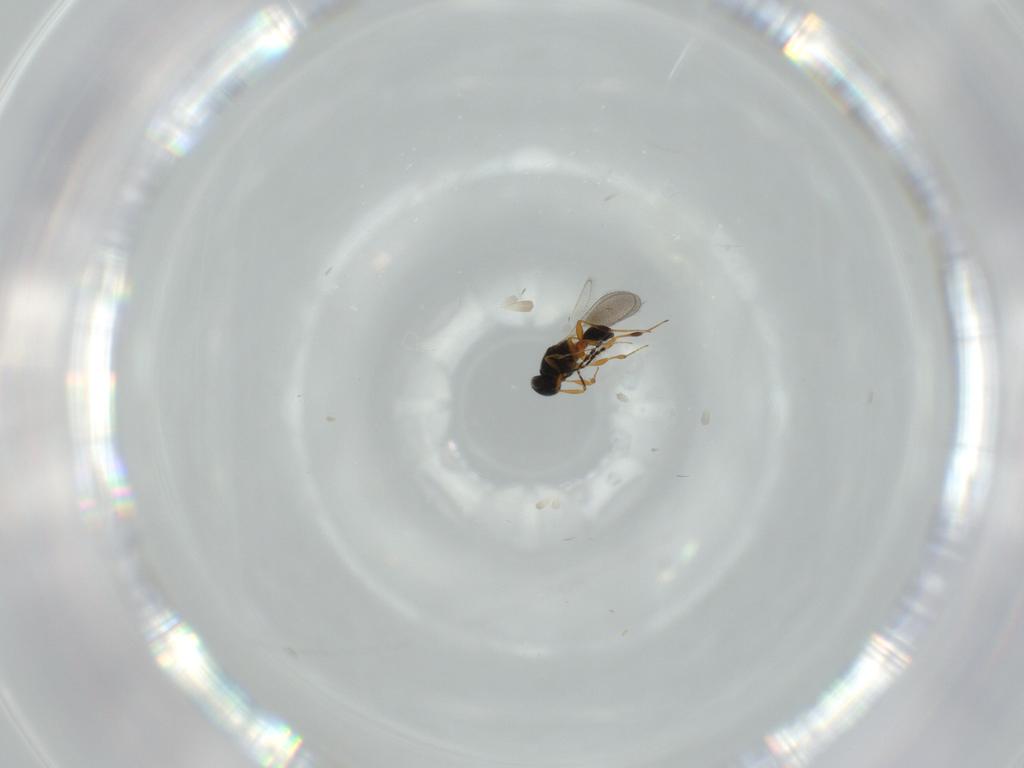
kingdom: Animalia
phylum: Arthropoda
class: Insecta
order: Hymenoptera
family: Platygastridae
